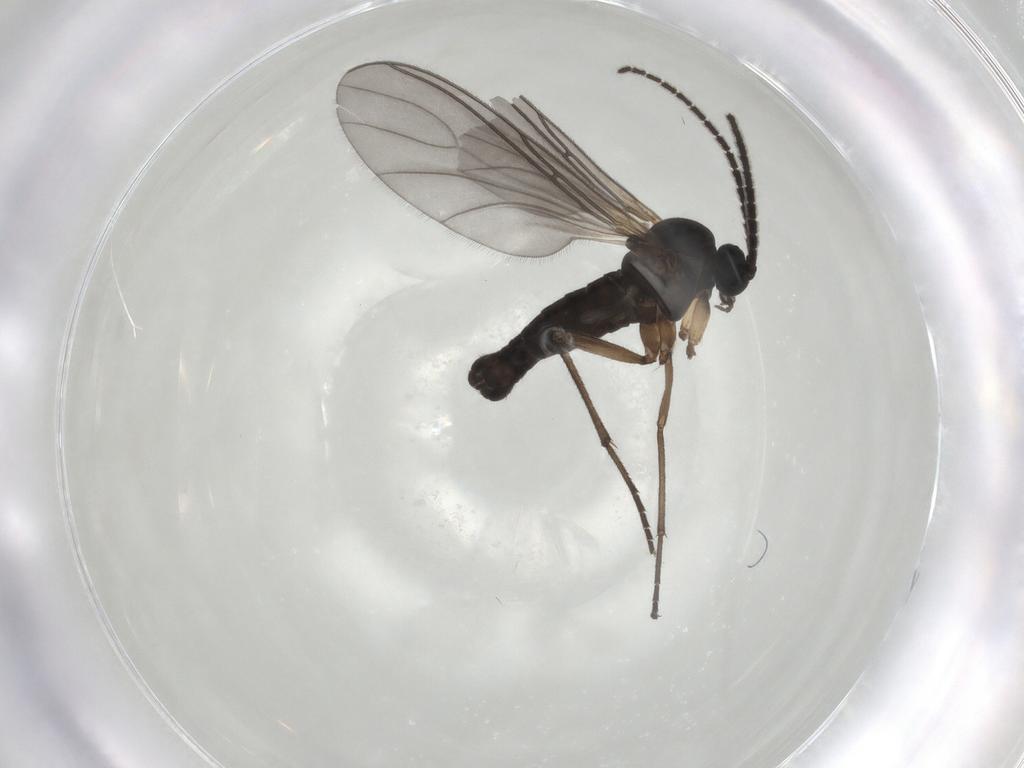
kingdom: Animalia
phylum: Arthropoda
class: Insecta
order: Diptera
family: Sciaridae
